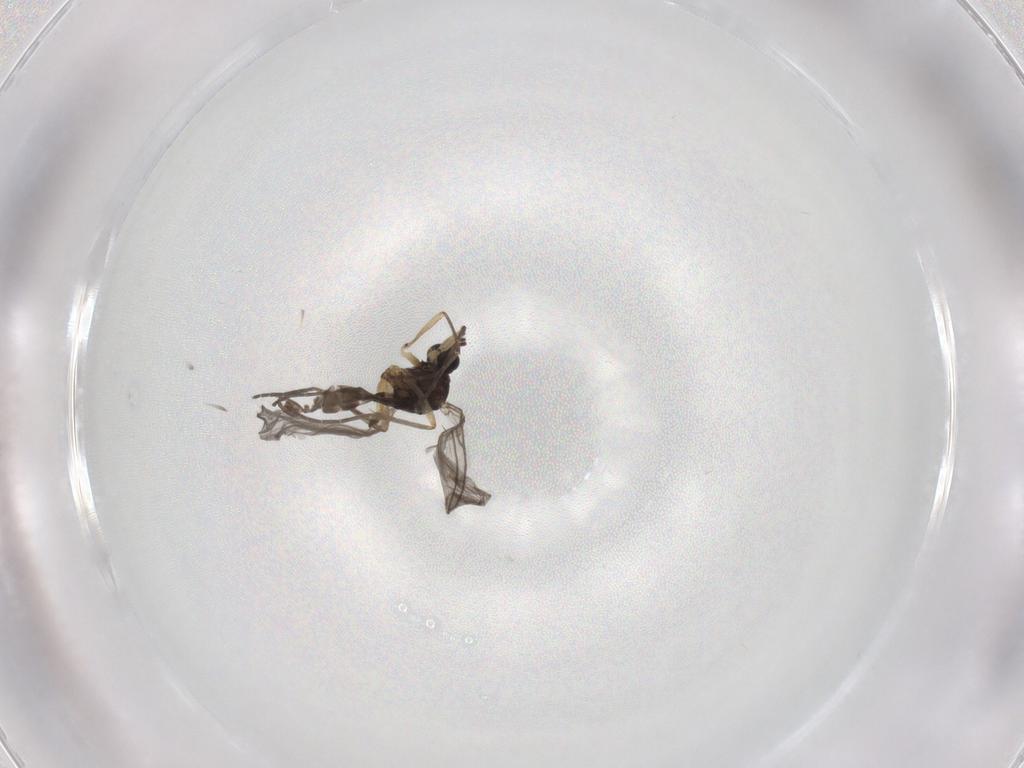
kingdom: Animalia
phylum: Arthropoda
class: Insecta
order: Diptera
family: Sciaridae
